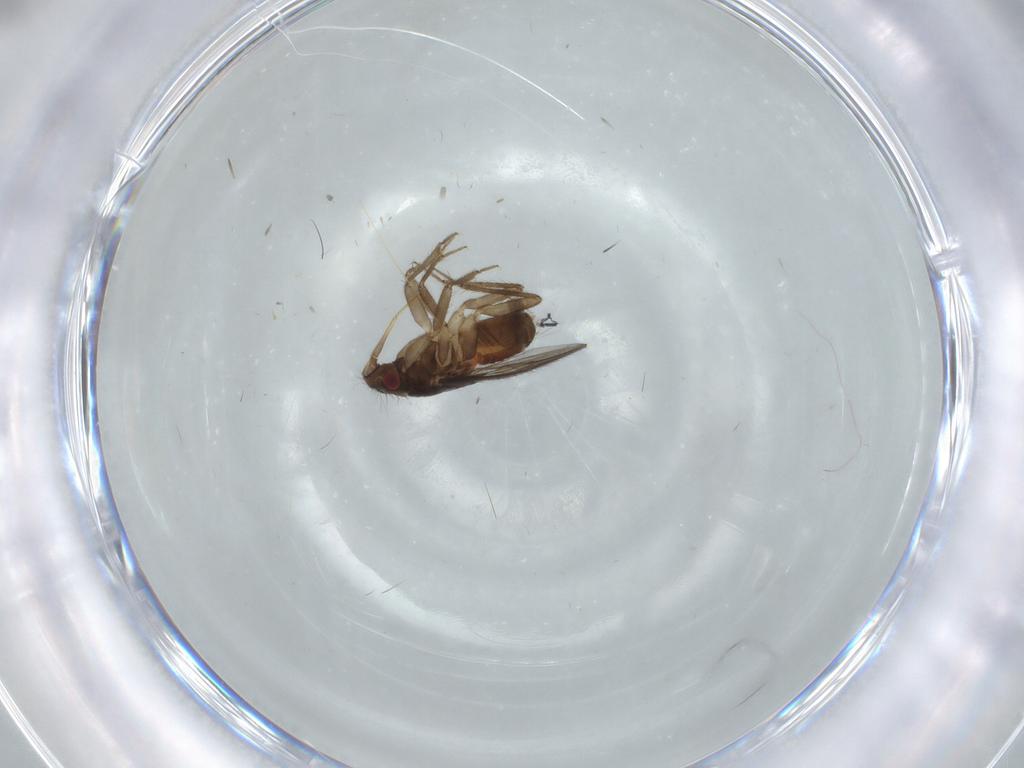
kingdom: Animalia
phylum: Arthropoda
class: Insecta
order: Hemiptera
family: Ceratocombidae
